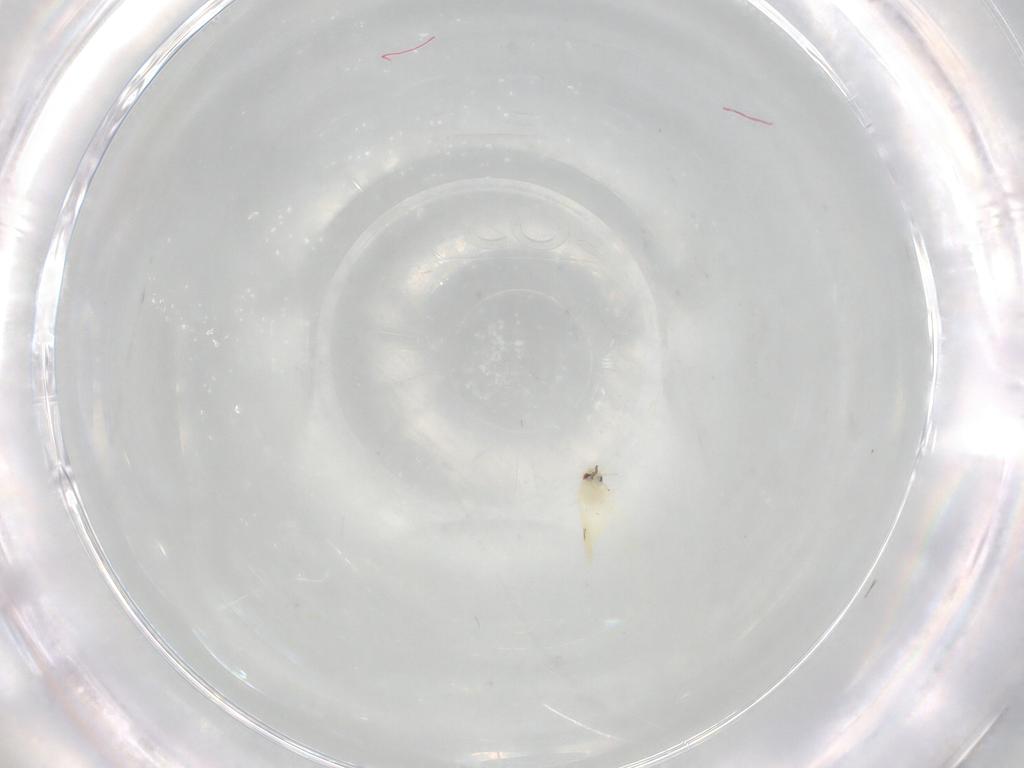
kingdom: Animalia
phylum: Arthropoda
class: Insecta
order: Diptera
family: Cecidomyiidae
